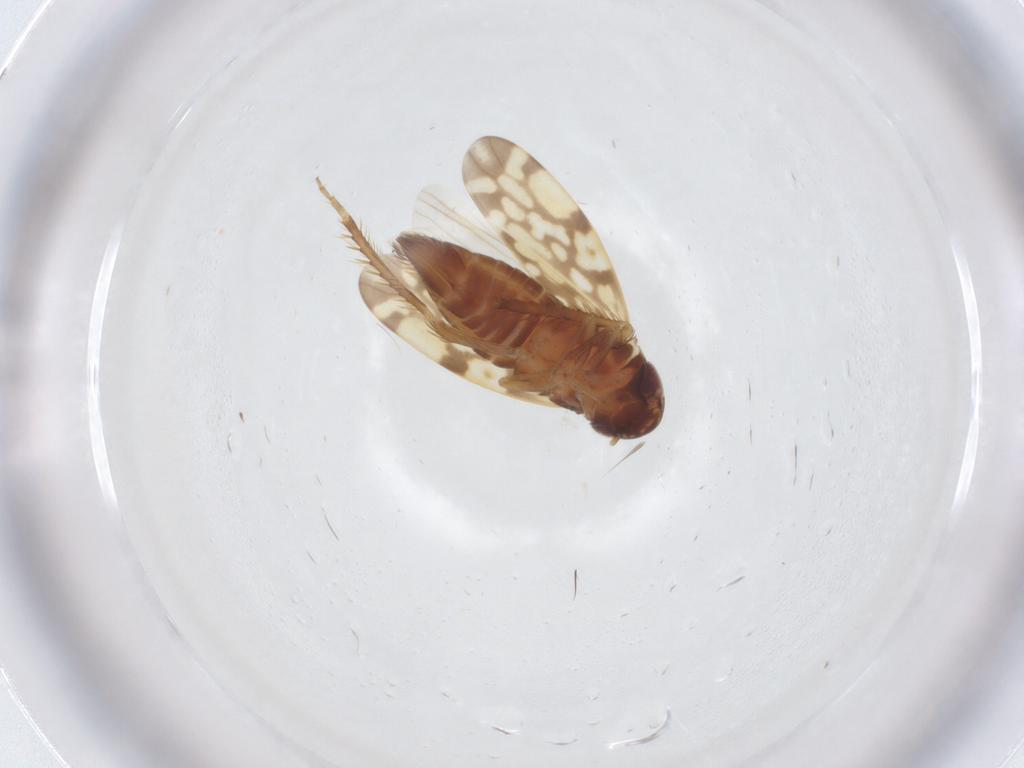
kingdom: Animalia
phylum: Arthropoda
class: Insecta
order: Hemiptera
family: Cicadellidae
